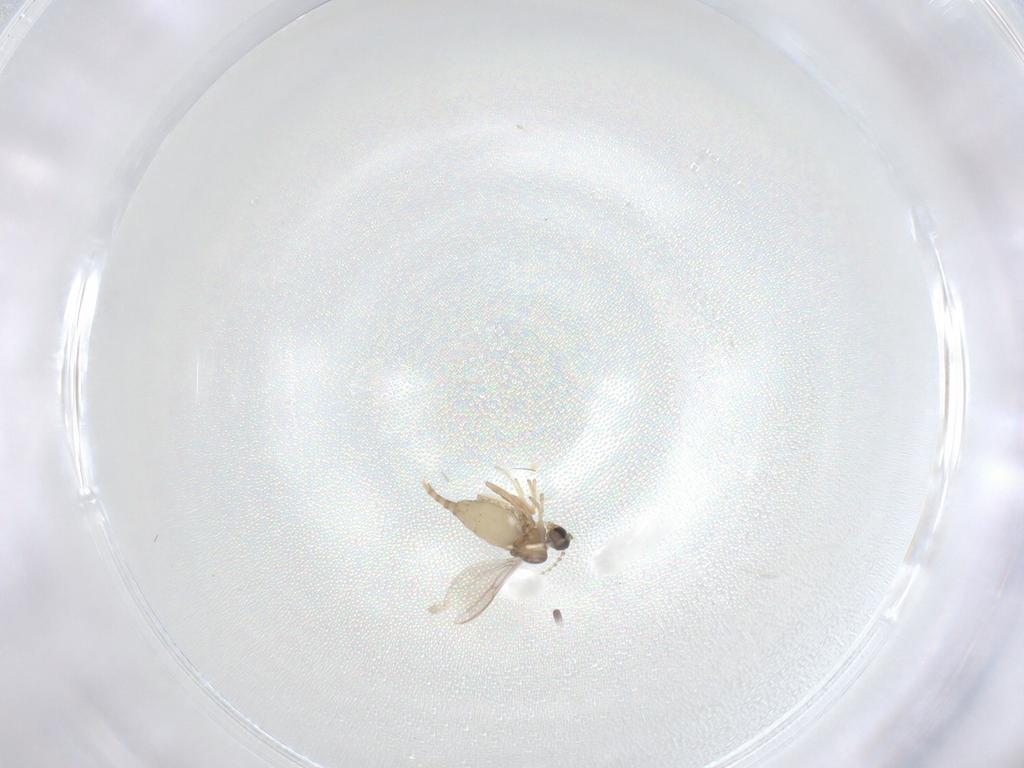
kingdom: Animalia
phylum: Arthropoda
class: Insecta
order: Diptera
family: Cecidomyiidae
